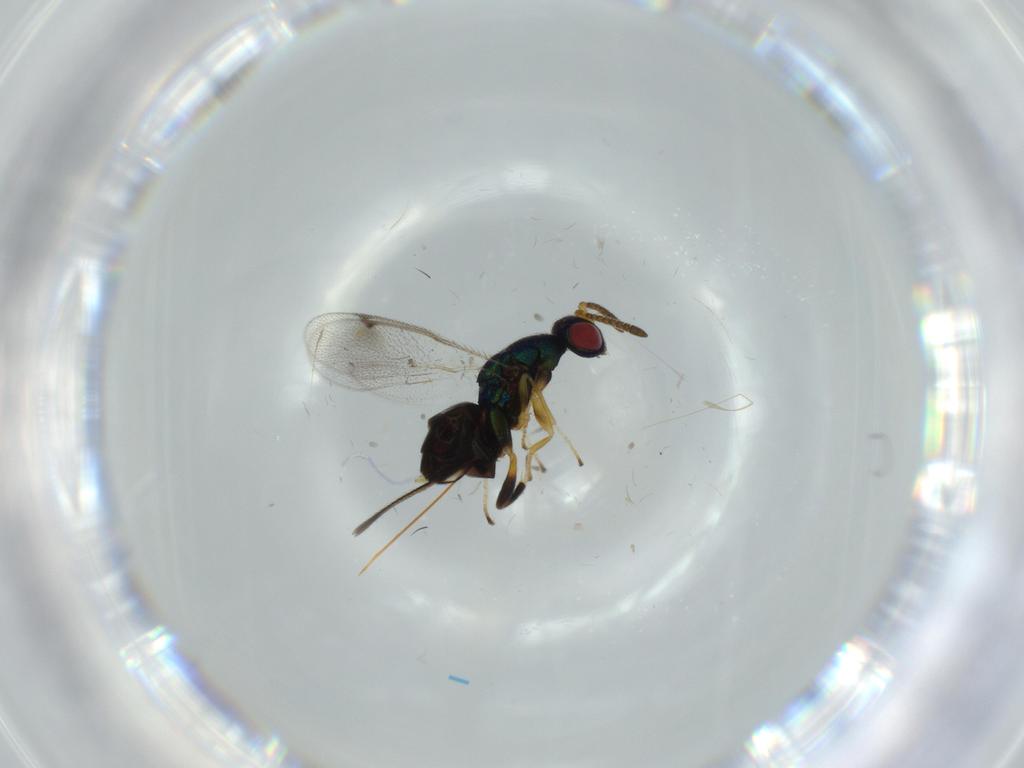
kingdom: Animalia
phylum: Arthropoda
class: Insecta
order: Hymenoptera
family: Torymidae
